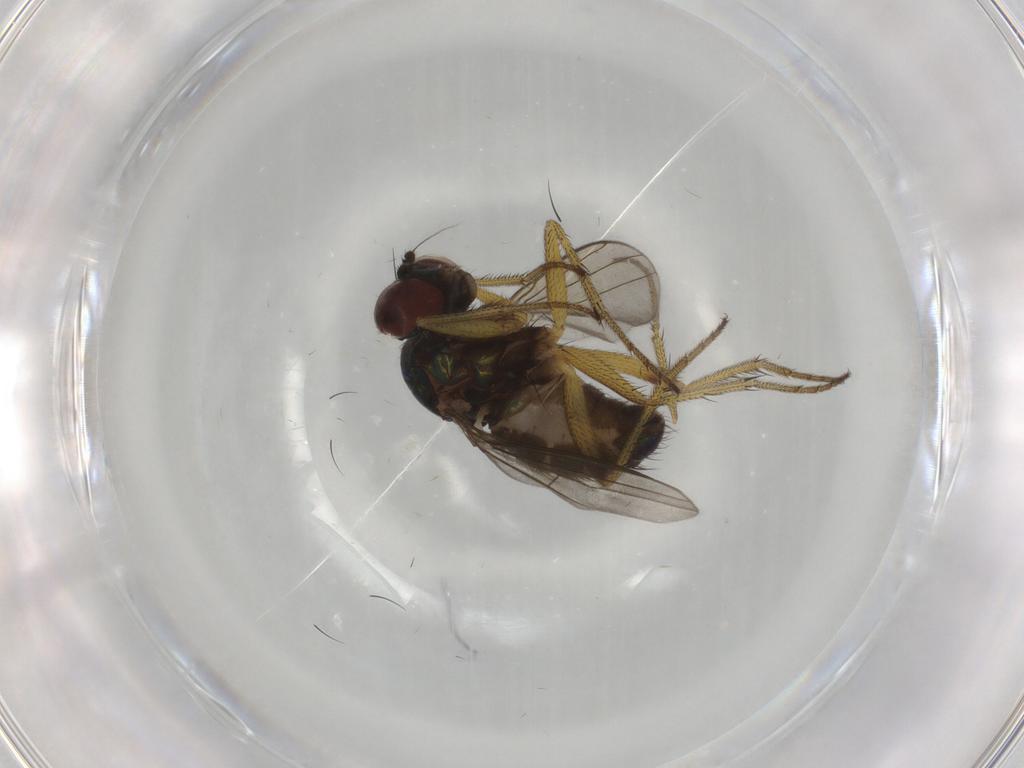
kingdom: Animalia
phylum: Arthropoda
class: Insecta
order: Diptera
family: Dolichopodidae
